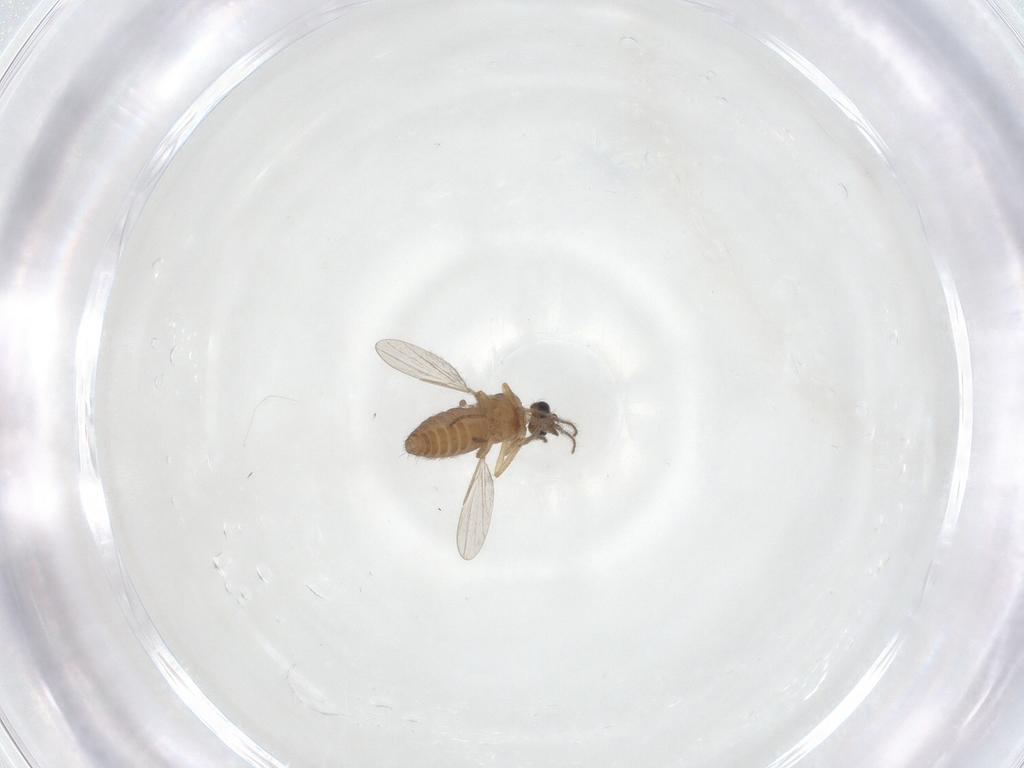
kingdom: Animalia
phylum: Arthropoda
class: Insecta
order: Diptera
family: Ceratopogonidae
